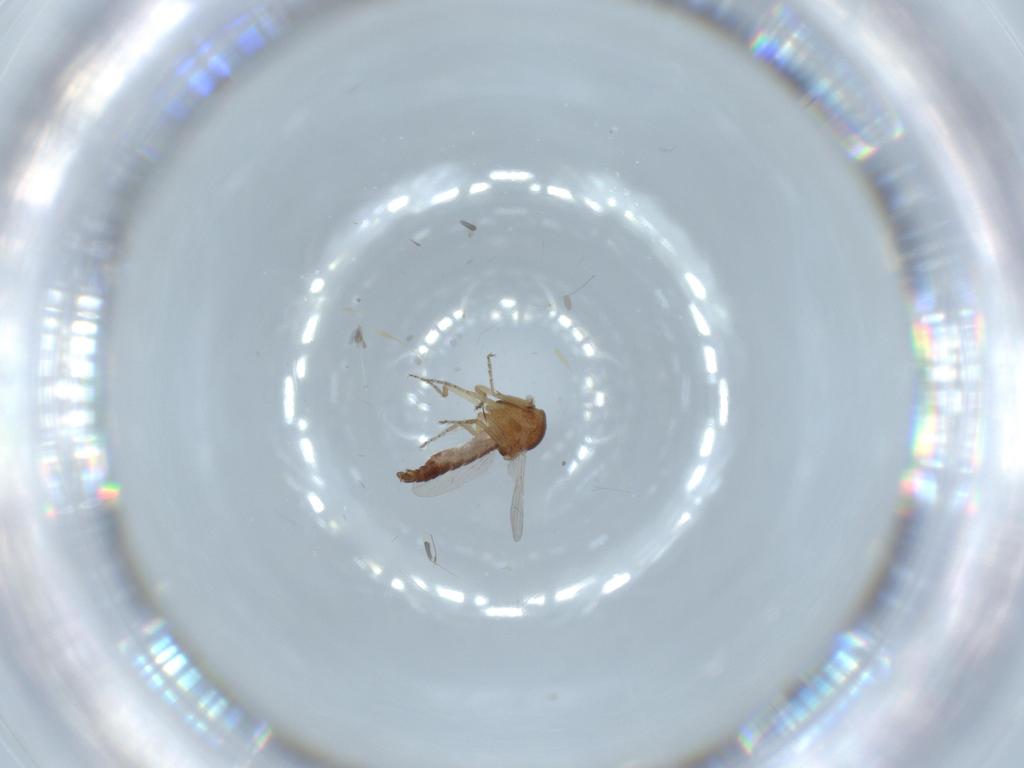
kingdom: Animalia
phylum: Arthropoda
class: Insecta
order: Diptera
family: Ceratopogonidae
